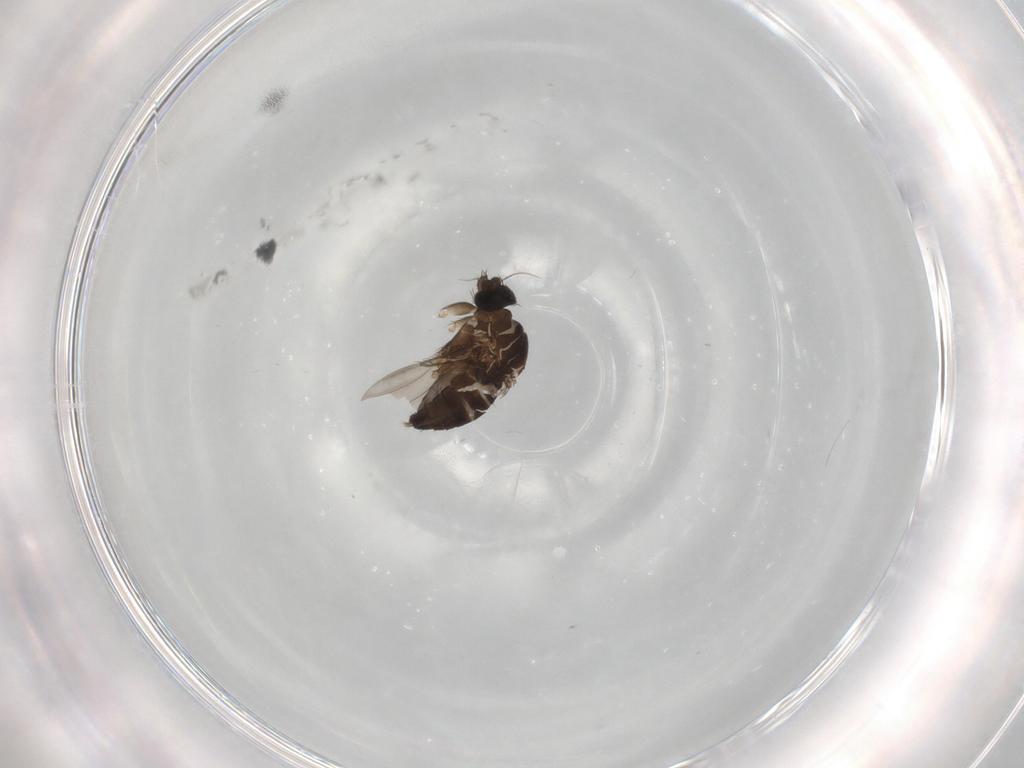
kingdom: Animalia
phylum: Arthropoda
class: Insecta
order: Diptera
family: Phoridae
